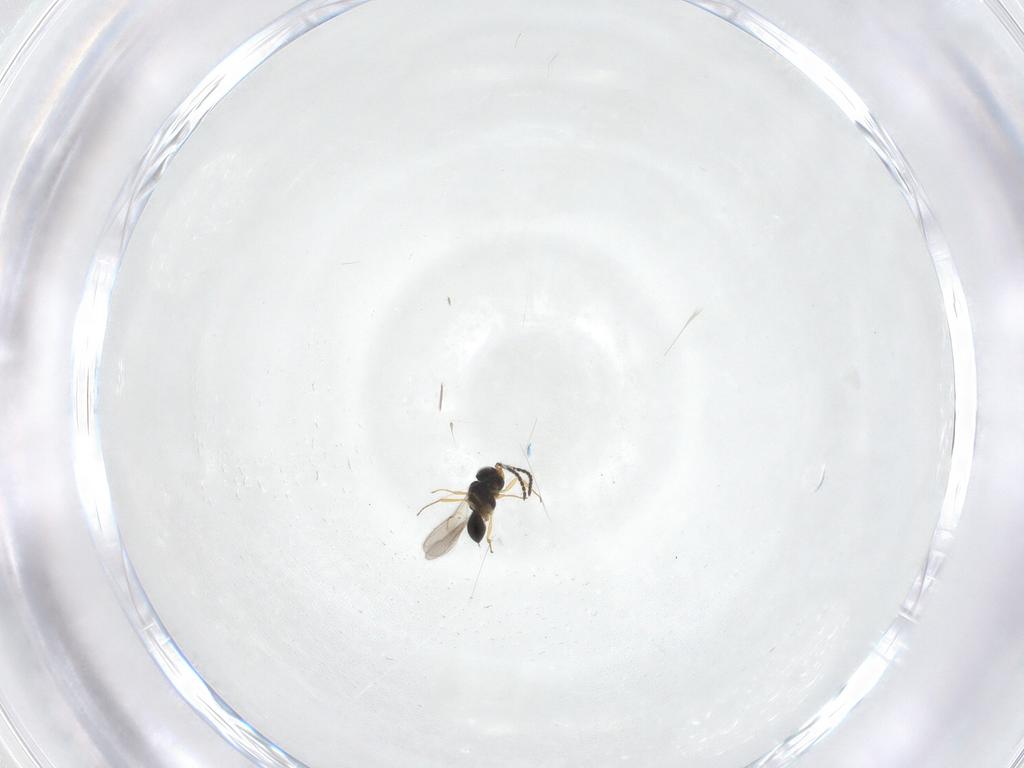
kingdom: Animalia
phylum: Arthropoda
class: Insecta
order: Hymenoptera
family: Scelionidae
